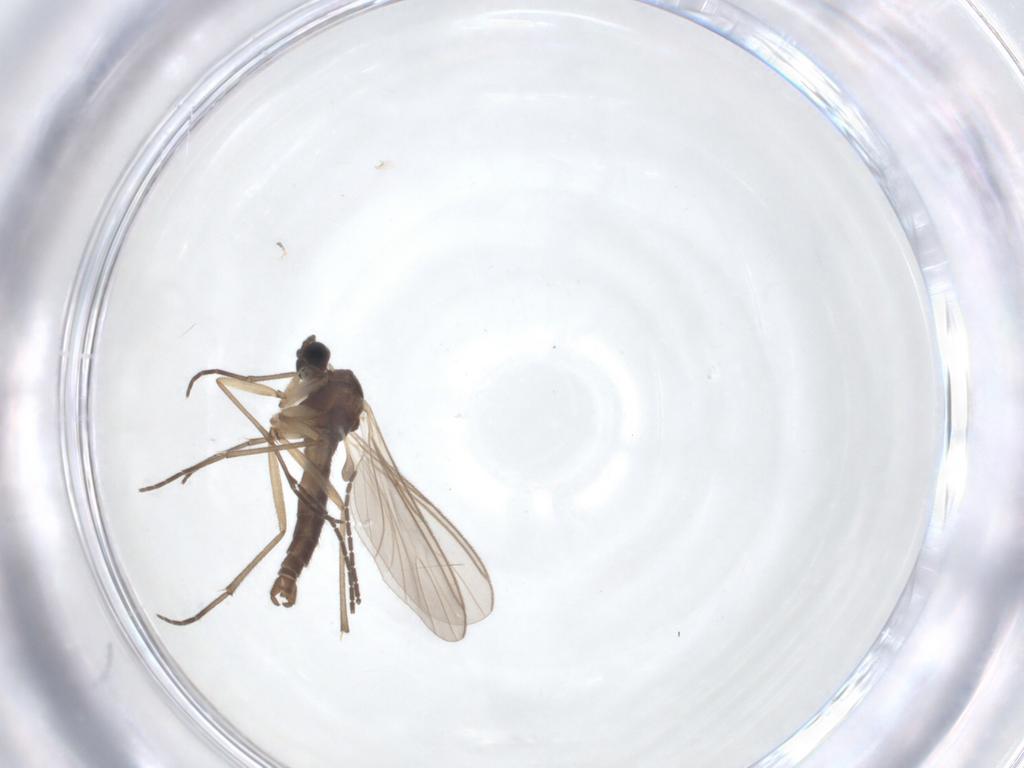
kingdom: Animalia
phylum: Arthropoda
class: Insecta
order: Diptera
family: Sciaridae
